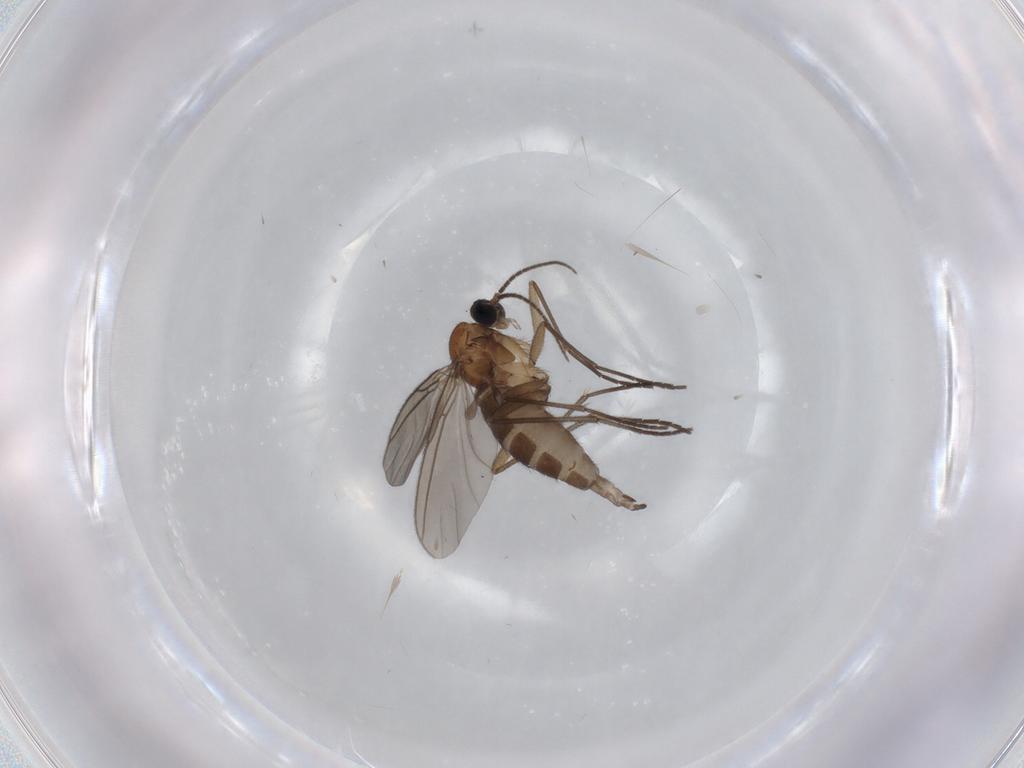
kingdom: Animalia
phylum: Arthropoda
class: Insecta
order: Diptera
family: Sciaridae
